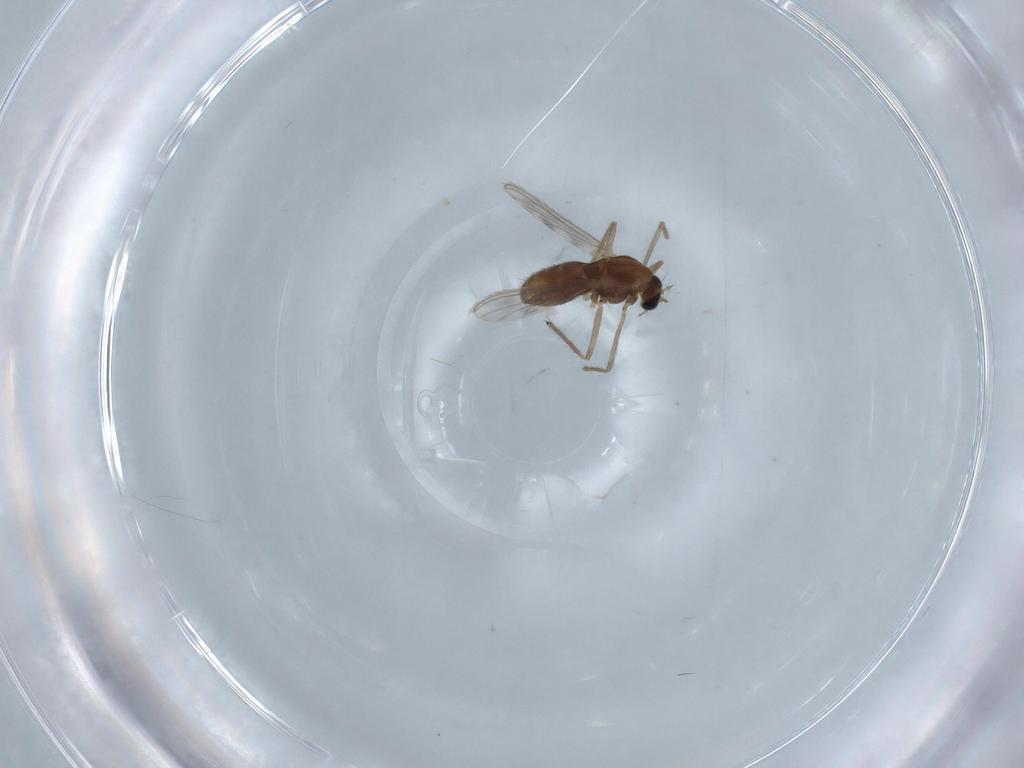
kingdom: Animalia
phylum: Arthropoda
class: Insecta
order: Diptera
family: Chironomidae
